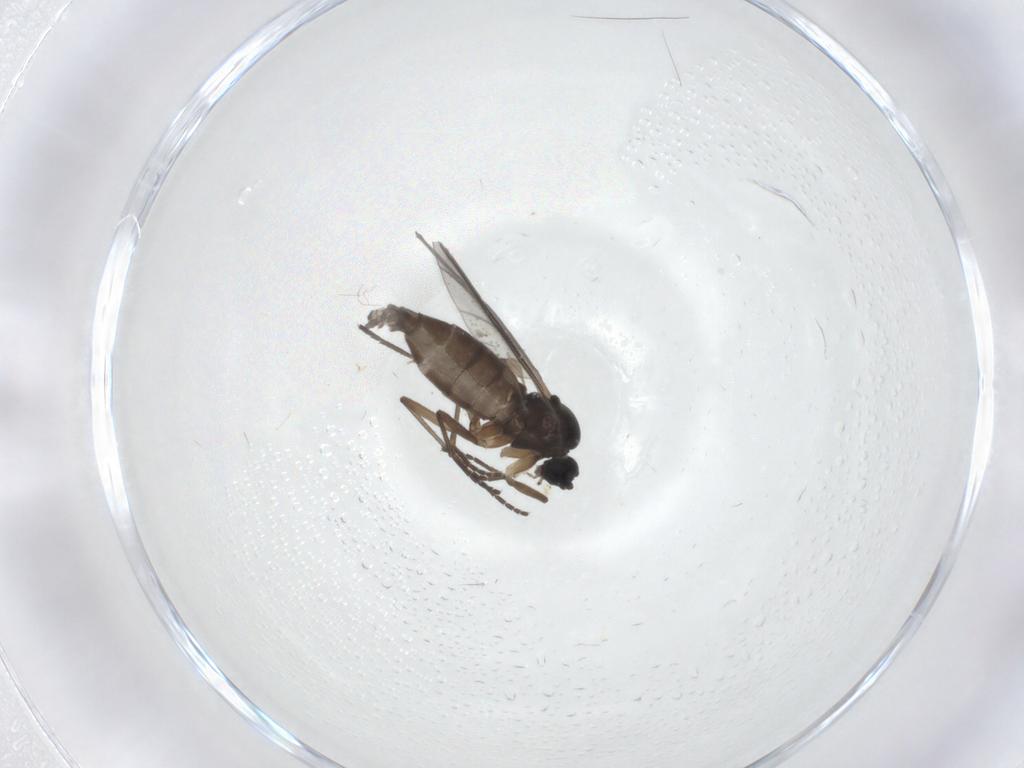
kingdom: Animalia
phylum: Arthropoda
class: Insecta
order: Diptera
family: Sciaridae
